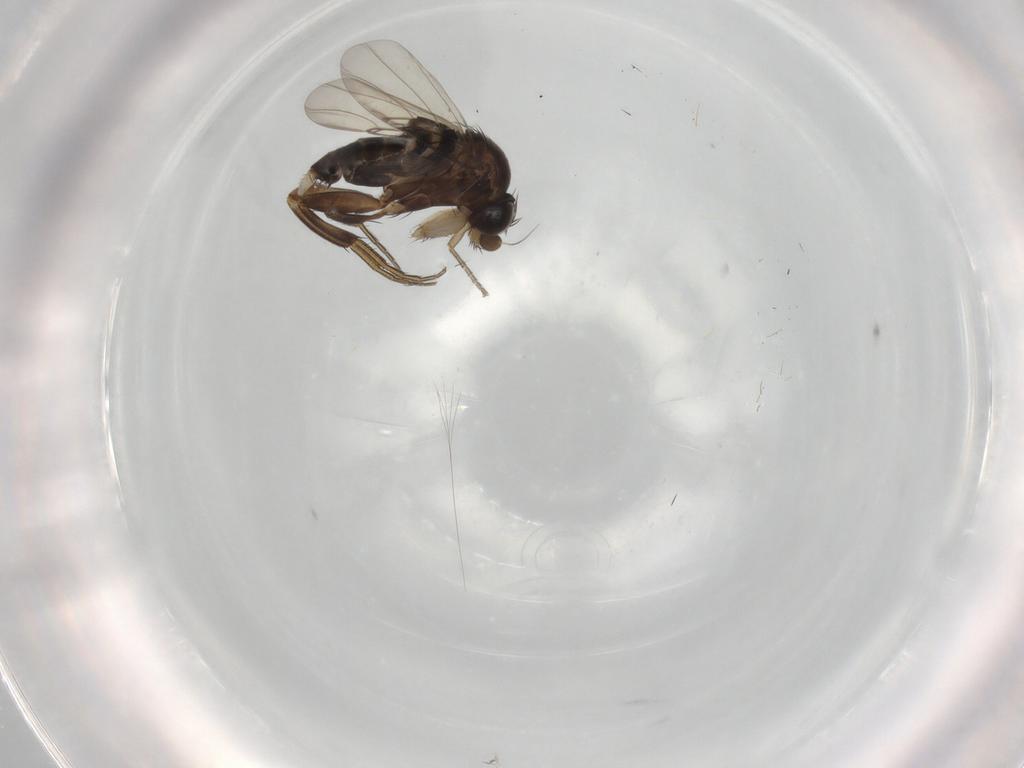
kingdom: Animalia
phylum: Arthropoda
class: Insecta
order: Diptera
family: Phoridae
